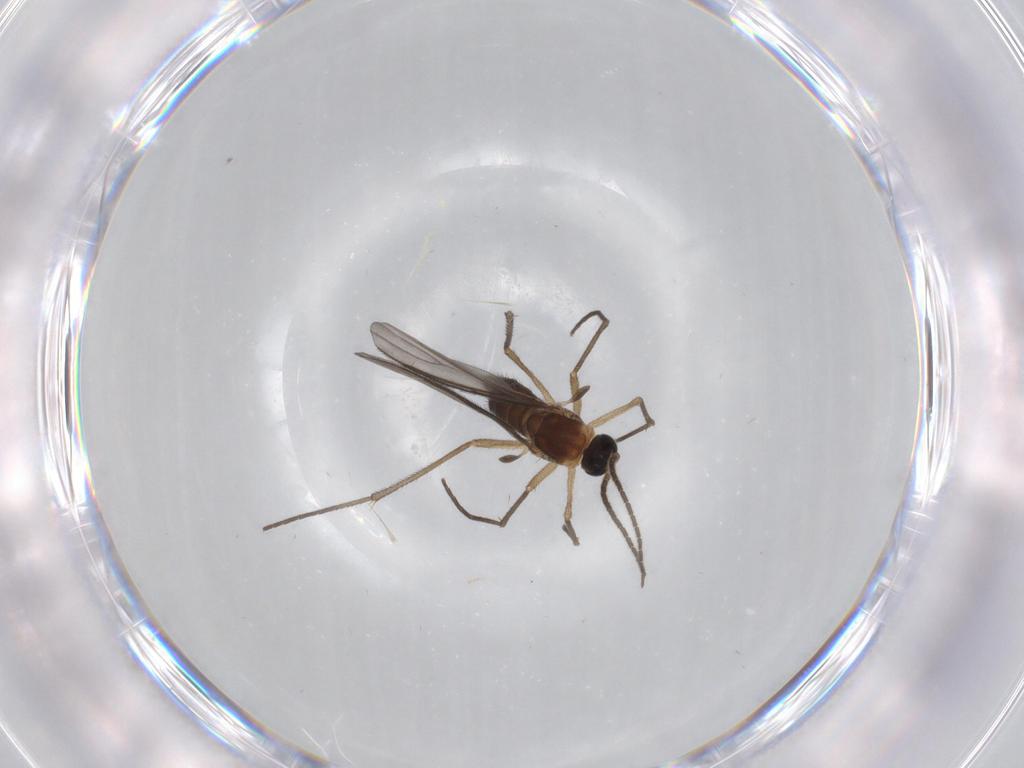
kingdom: Animalia
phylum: Arthropoda
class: Insecta
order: Diptera
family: Sciaridae
